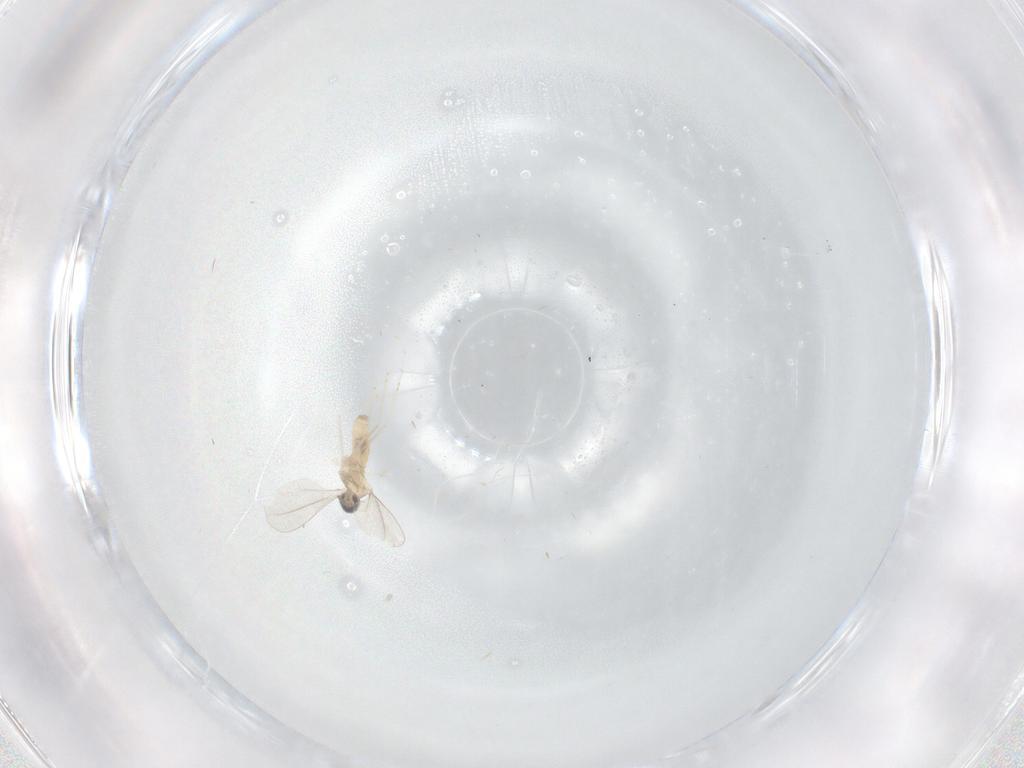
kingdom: Animalia
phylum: Arthropoda
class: Insecta
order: Diptera
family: Cecidomyiidae
